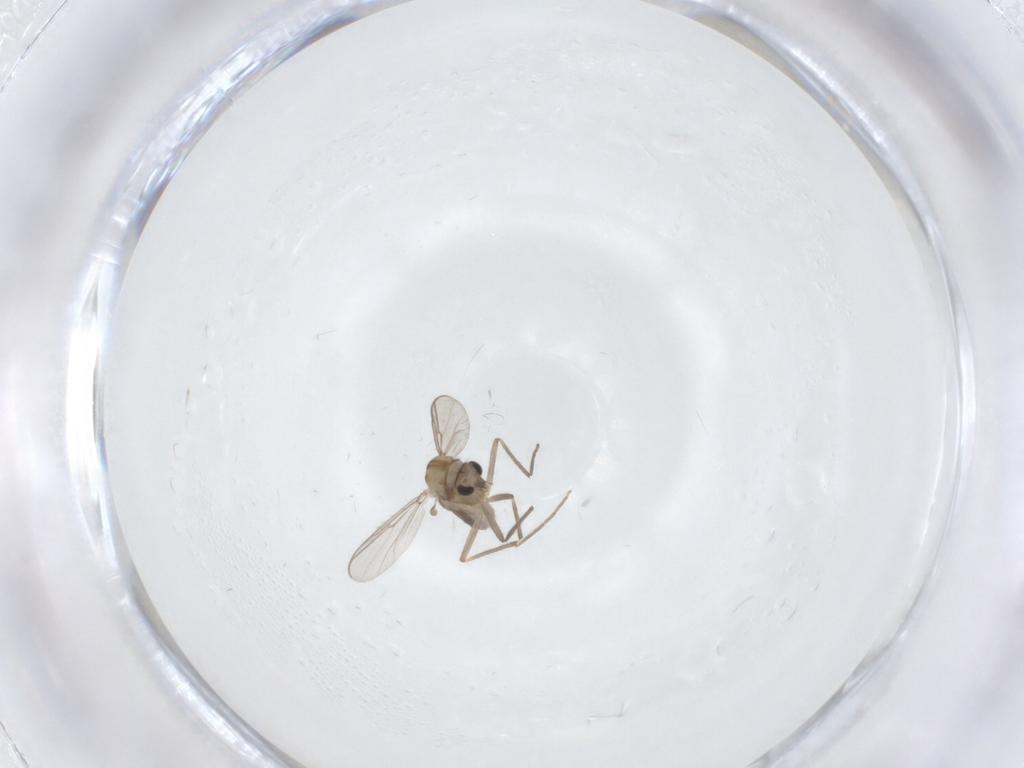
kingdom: Animalia
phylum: Arthropoda
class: Insecta
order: Diptera
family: Chironomidae
